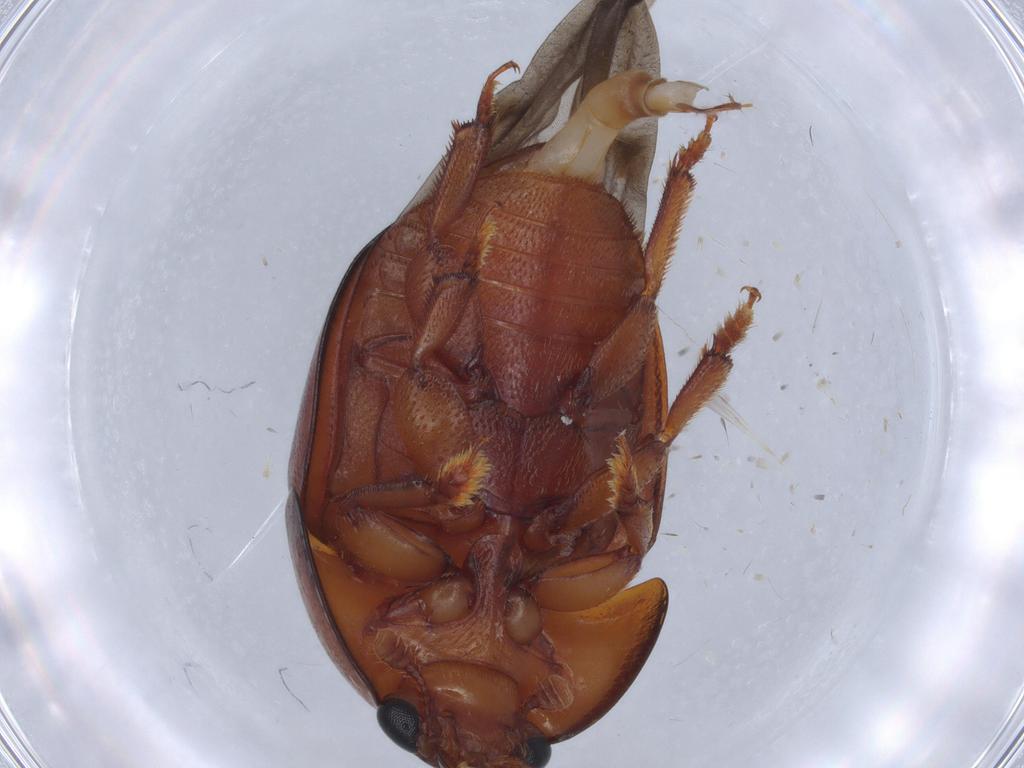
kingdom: Animalia
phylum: Arthropoda
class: Insecta
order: Coleoptera
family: Nitidulidae
